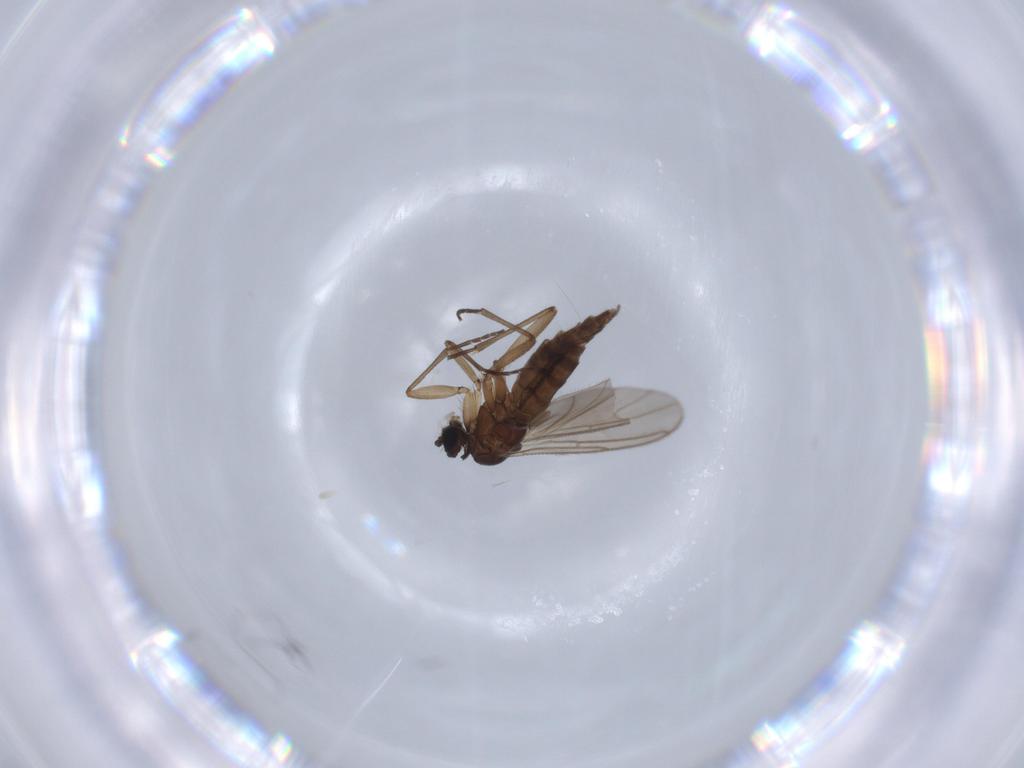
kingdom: Animalia
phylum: Arthropoda
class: Insecta
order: Diptera
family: Sciaridae
